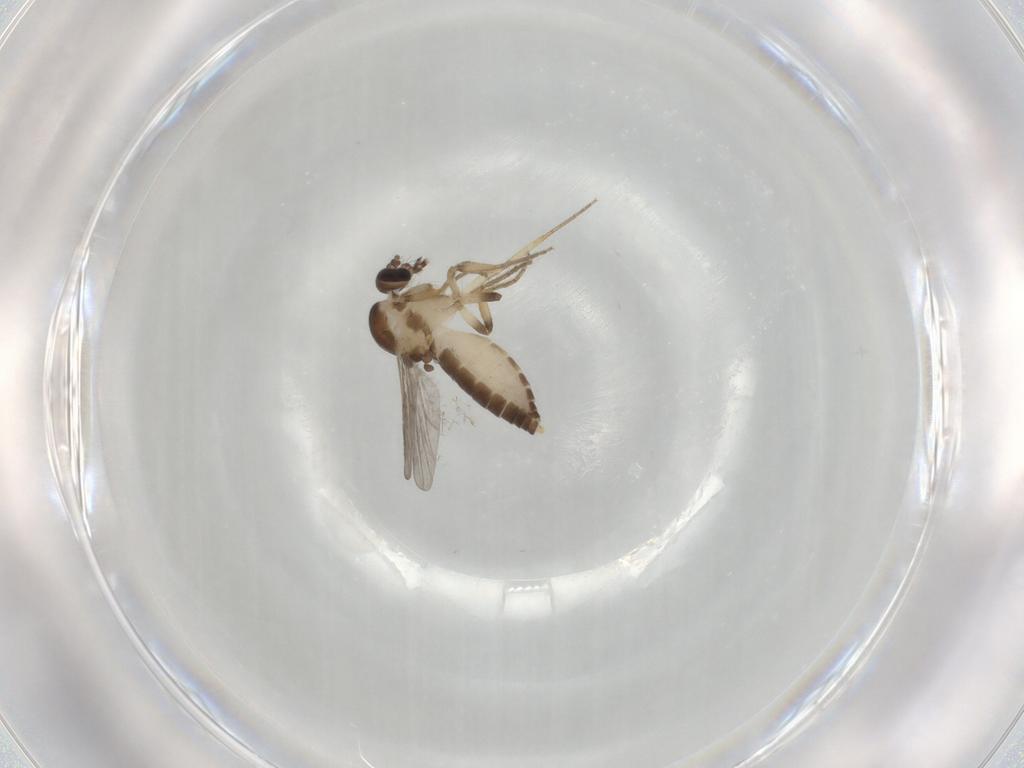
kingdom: Animalia
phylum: Arthropoda
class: Insecta
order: Diptera
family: Ceratopogonidae
